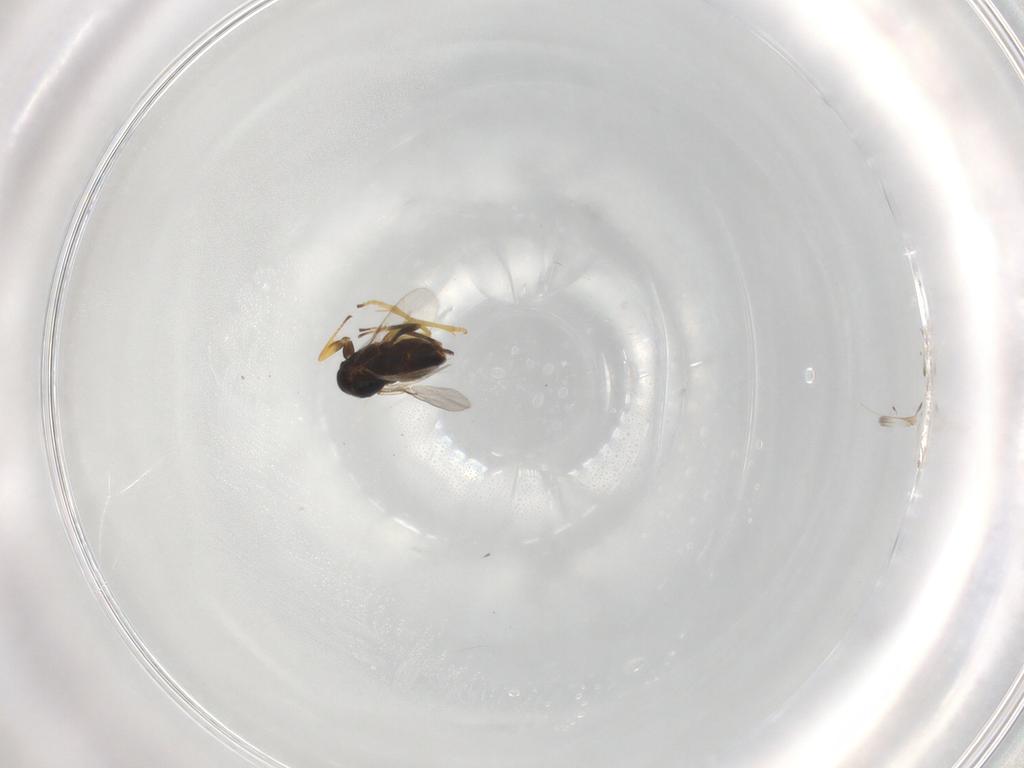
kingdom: Animalia
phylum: Arthropoda
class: Insecta
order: Diptera
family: Chironomidae
